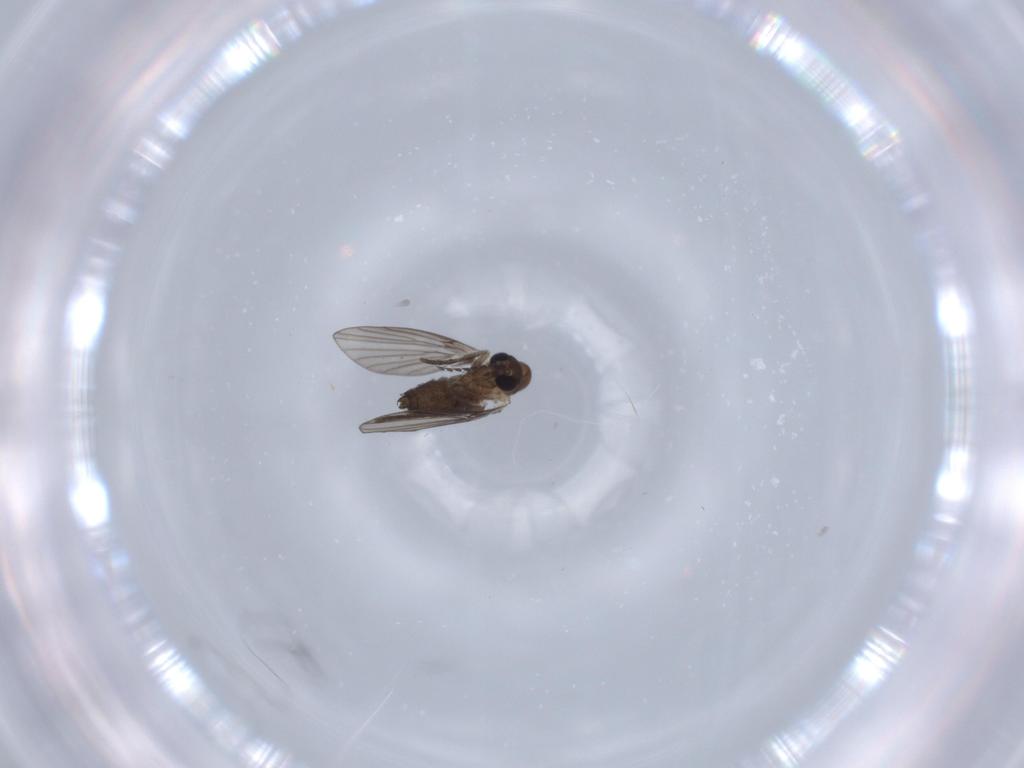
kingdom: Animalia
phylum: Arthropoda
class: Insecta
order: Diptera
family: Psychodidae
